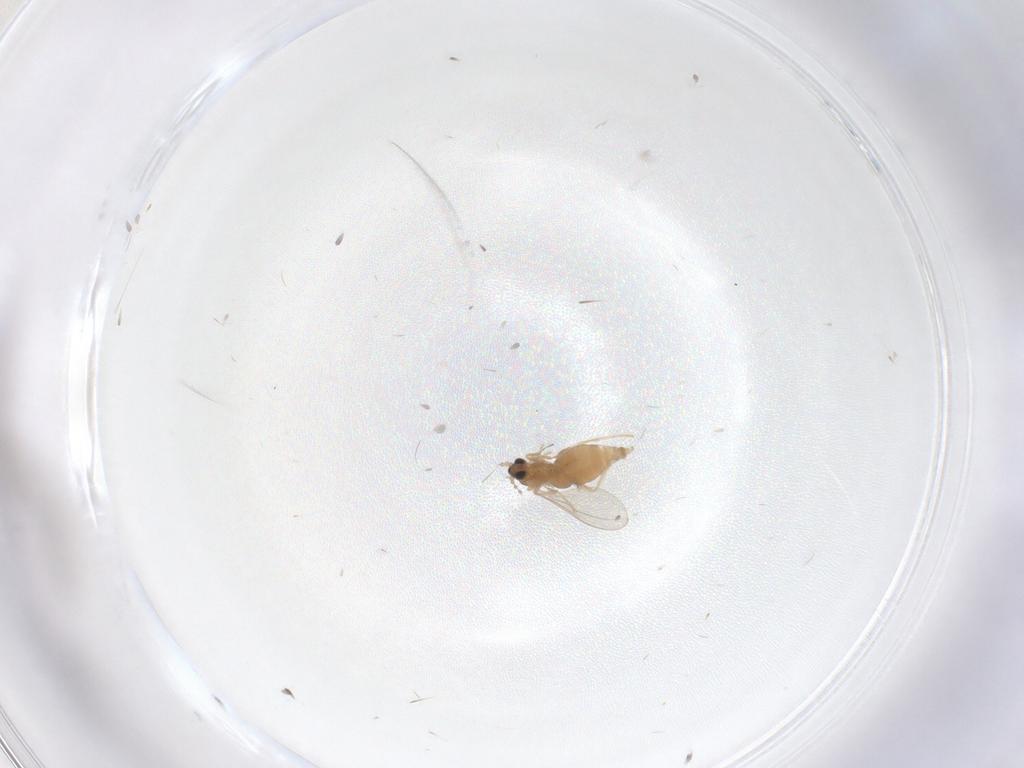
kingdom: Animalia
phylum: Arthropoda
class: Insecta
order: Diptera
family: Cecidomyiidae
